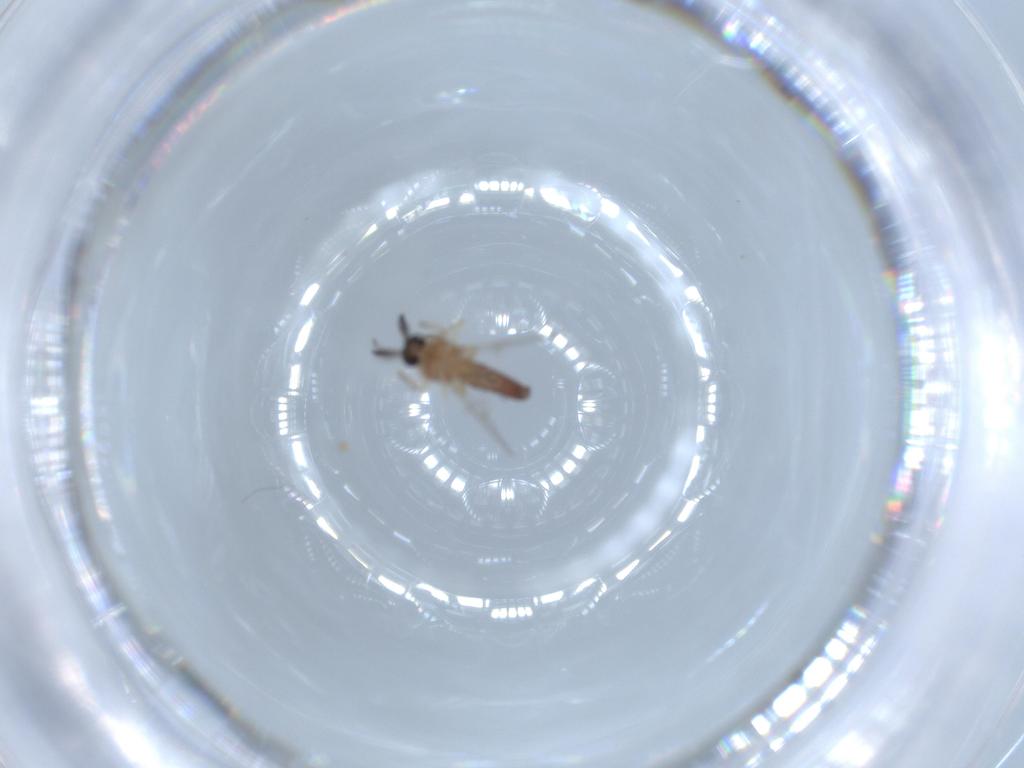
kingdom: Animalia
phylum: Arthropoda
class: Insecta
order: Diptera
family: Ceratopogonidae
